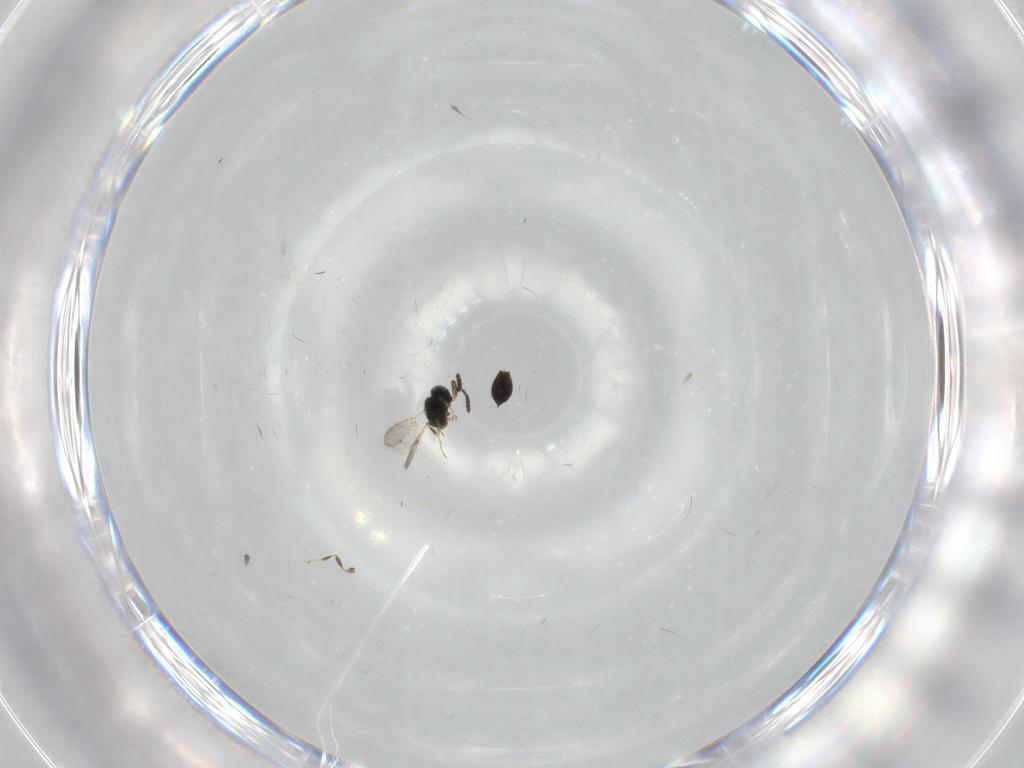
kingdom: Animalia
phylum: Arthropoda
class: Insecta
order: Hymenoptera
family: Scelionidae
